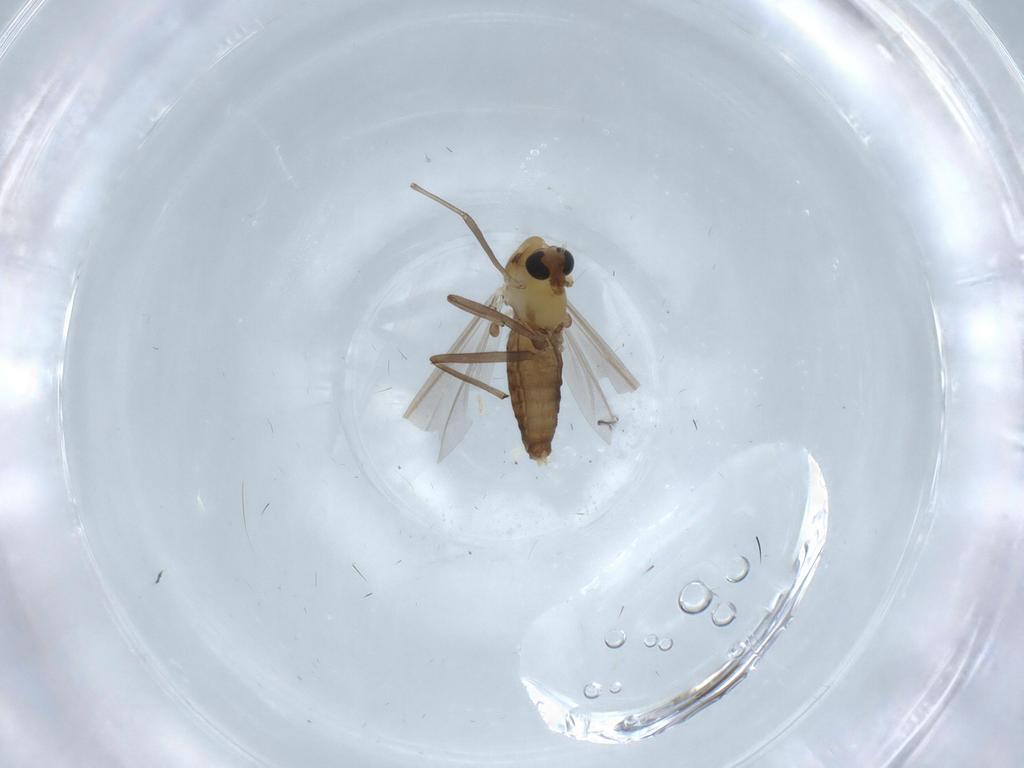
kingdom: Animalia
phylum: Arthropoda
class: Insecta
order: Diptera
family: Chironomidae
